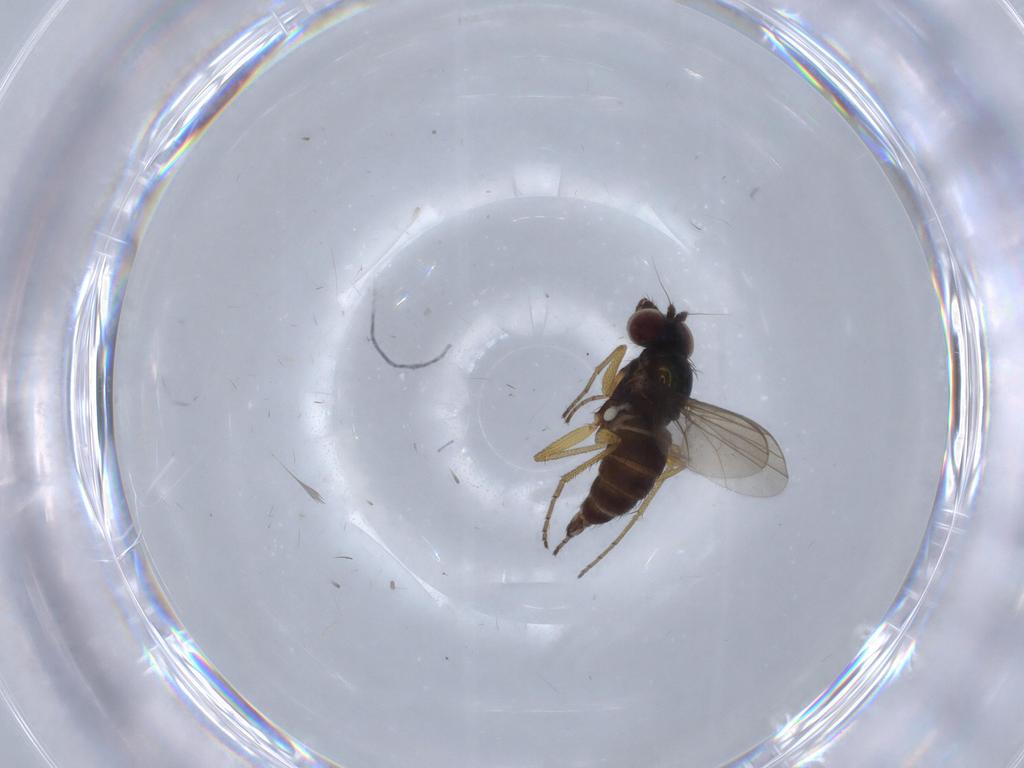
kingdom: Animalia
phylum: Arthropoda
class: Insecta
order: Diptera
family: Dolichopodidae
